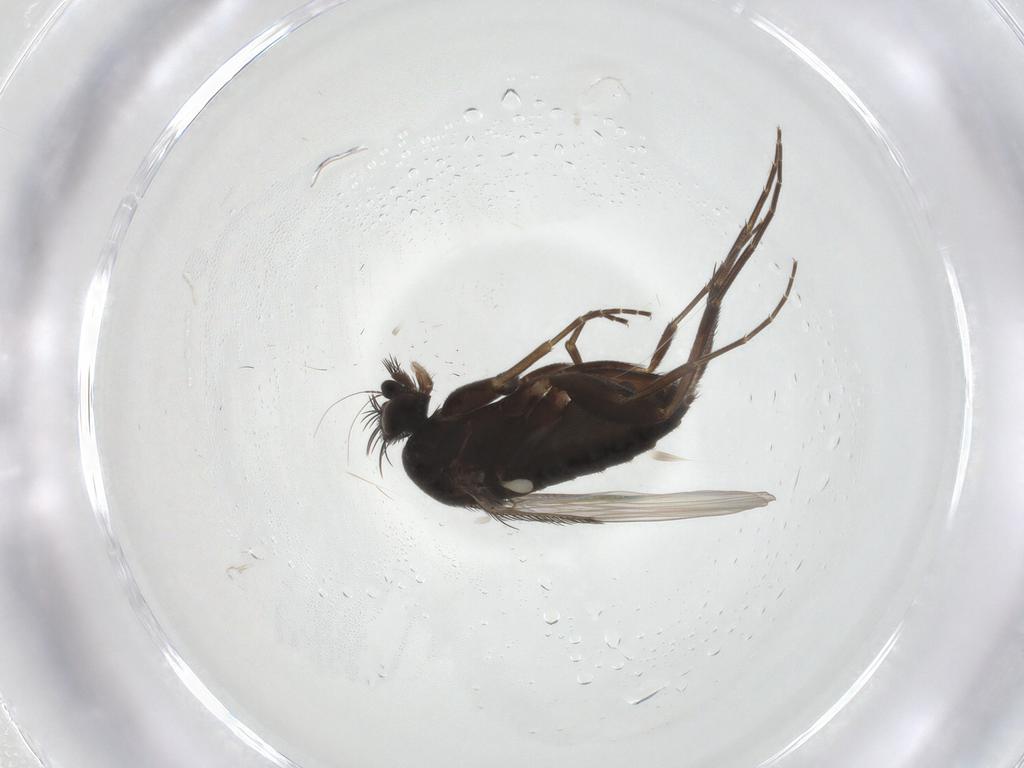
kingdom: Animalia
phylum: Arthropoda
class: Insecta
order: Diptera
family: Phoridae
